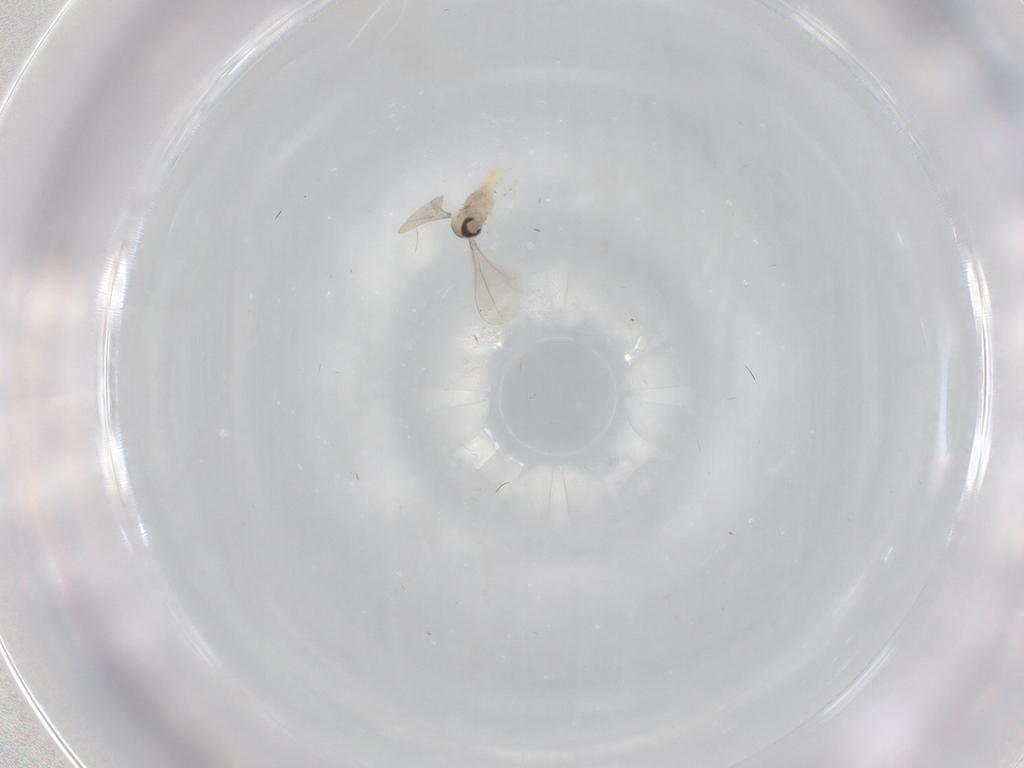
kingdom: Animalia
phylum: Arthropoda
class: Insecta
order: Diptera
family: Cecidomyiidae
